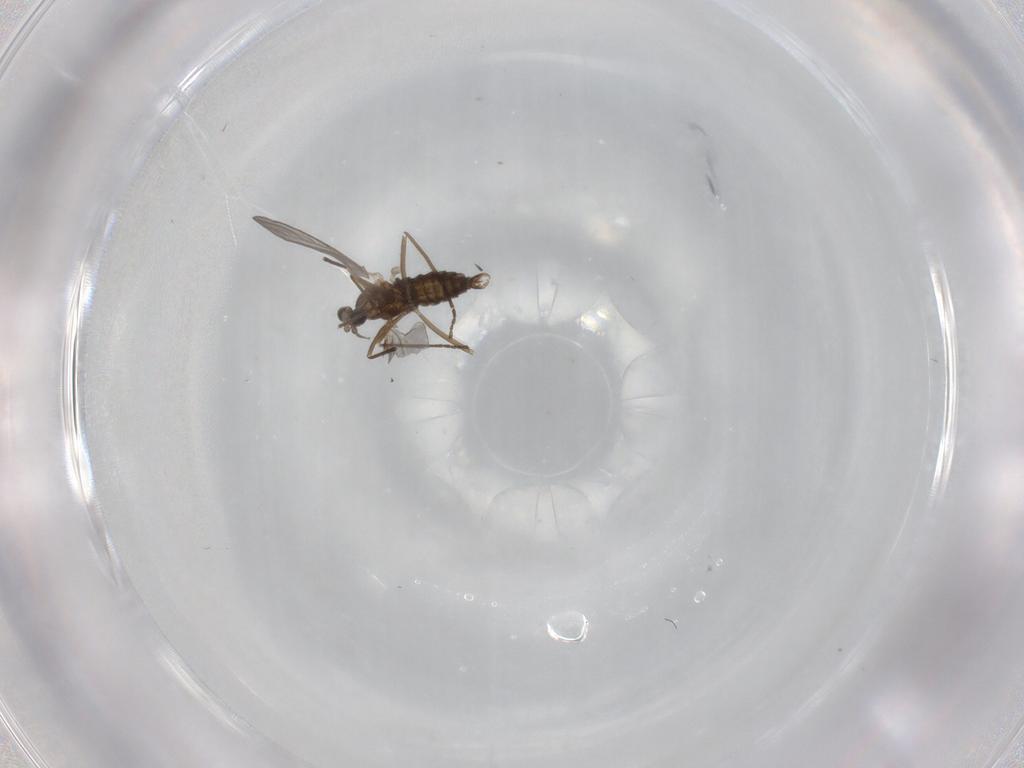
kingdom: Animalia
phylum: Arthropoda
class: Insecta
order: Diptera
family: Cecidomyiidae
